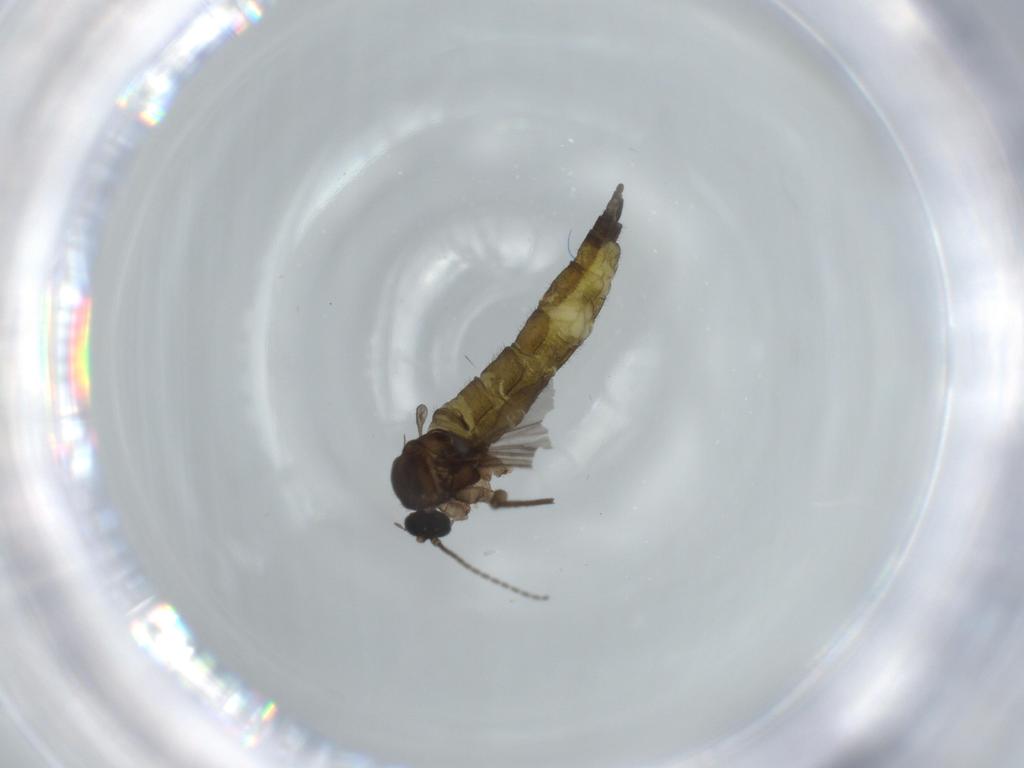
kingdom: Animalia
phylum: Arthropoda
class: Insecta
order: Diptera
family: Sciaridae
